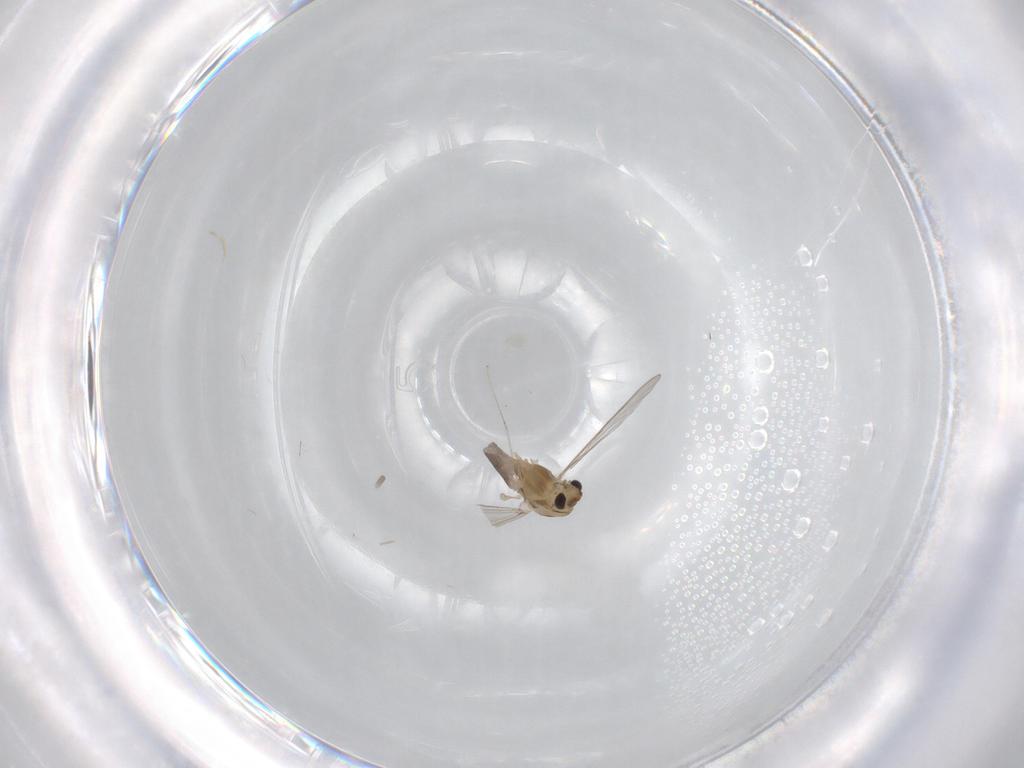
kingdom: Animalia
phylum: Arthropoda
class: Insecta
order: Diptera
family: Chironomidae
